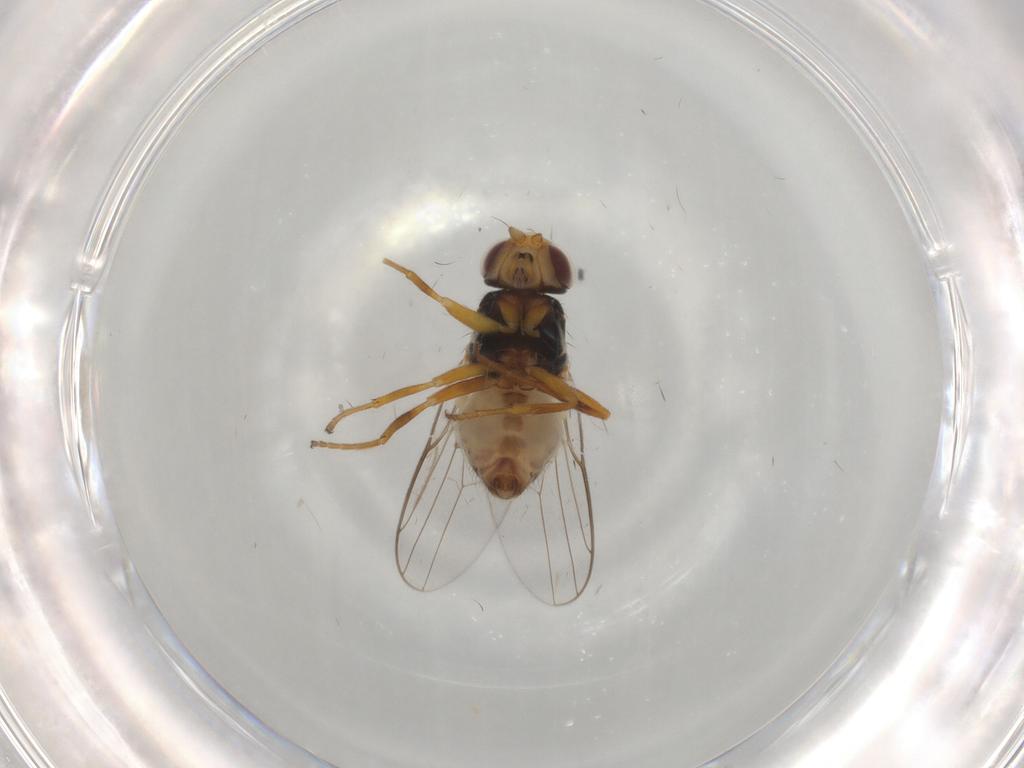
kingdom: Animalia
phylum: Arthropoda
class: Insecta
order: Diptera
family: Chloropidae
